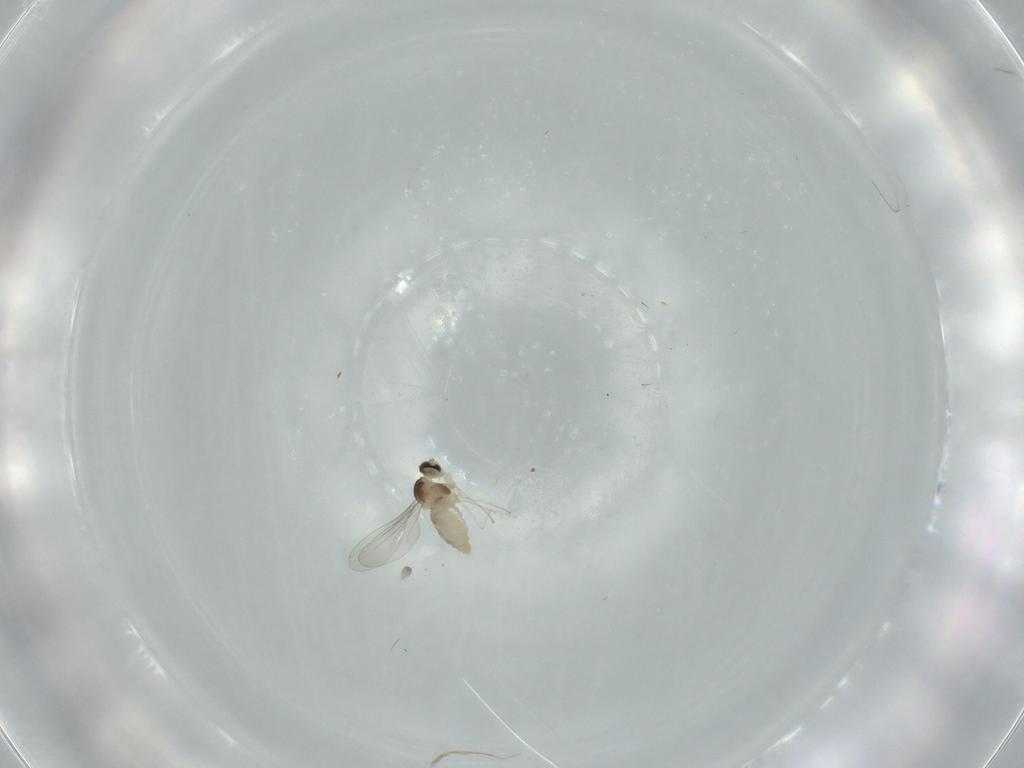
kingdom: Animalia
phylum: Arthropoda
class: Insecta
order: Diptera
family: Cecidomyiidae
